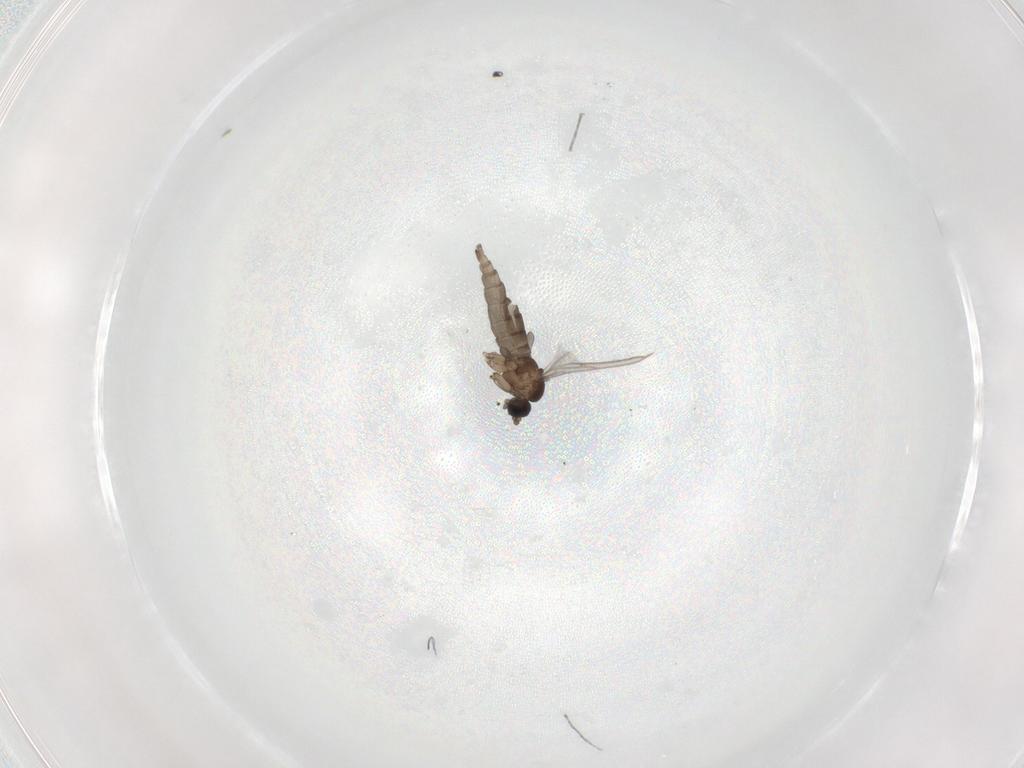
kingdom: Animalia
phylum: Arthropoda
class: Insecta
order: Diptera
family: Sciaridae
